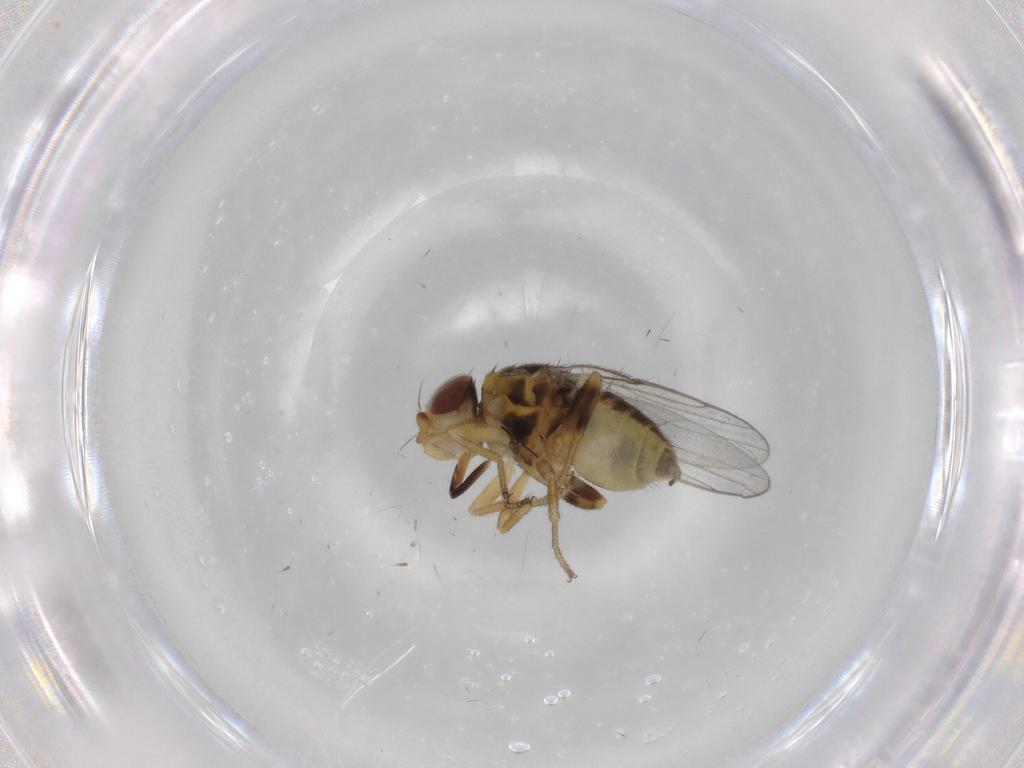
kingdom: Animalia
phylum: Arthropoda
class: Insecta
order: Diptera
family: Chloropidae
